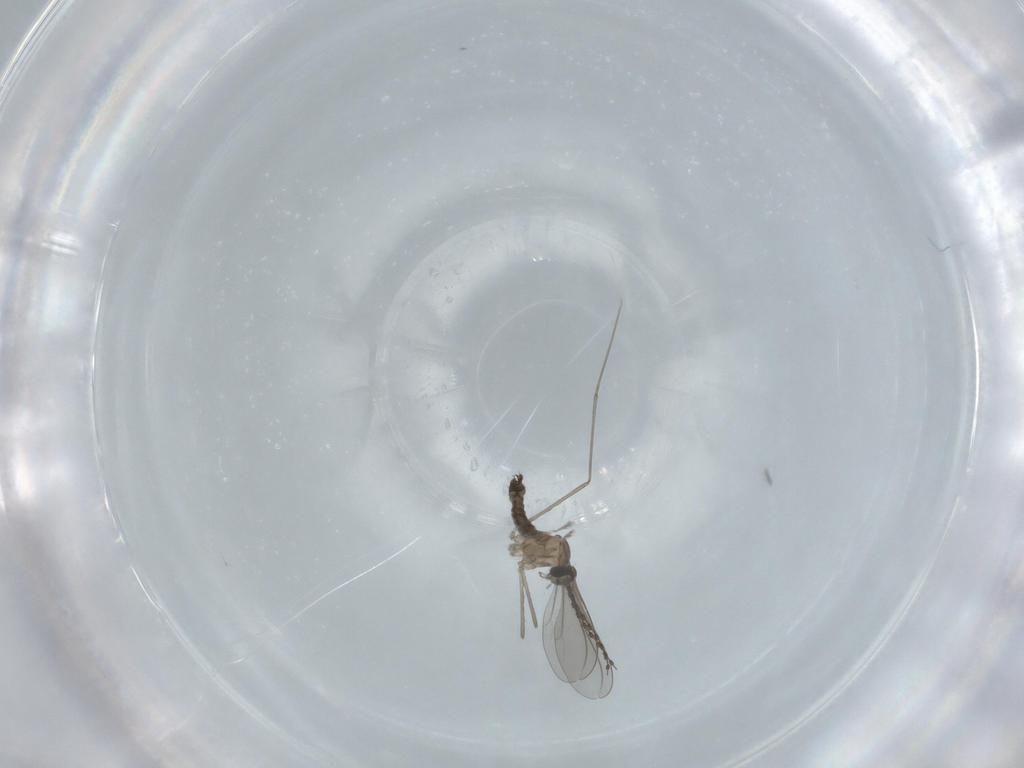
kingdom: Animalia
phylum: Arthropoda
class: Insecta
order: Diptera
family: Cecidomyiidae
